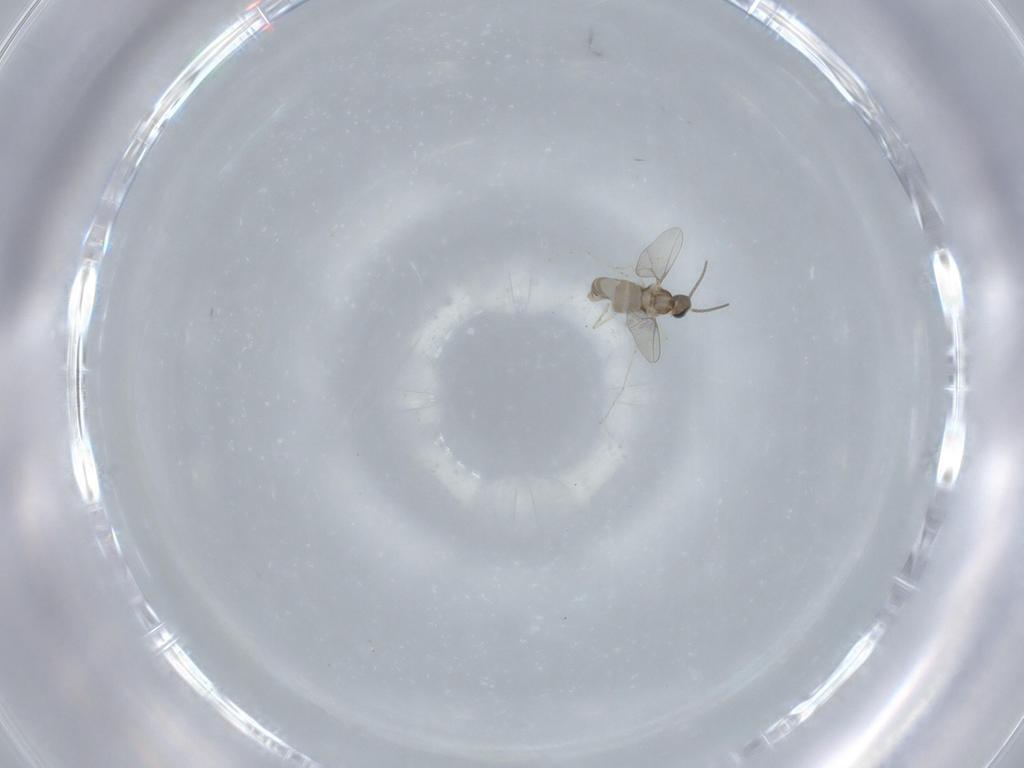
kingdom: Animalia
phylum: Arthropoda
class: Insecta
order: Diptera
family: Cecidomyiidae
